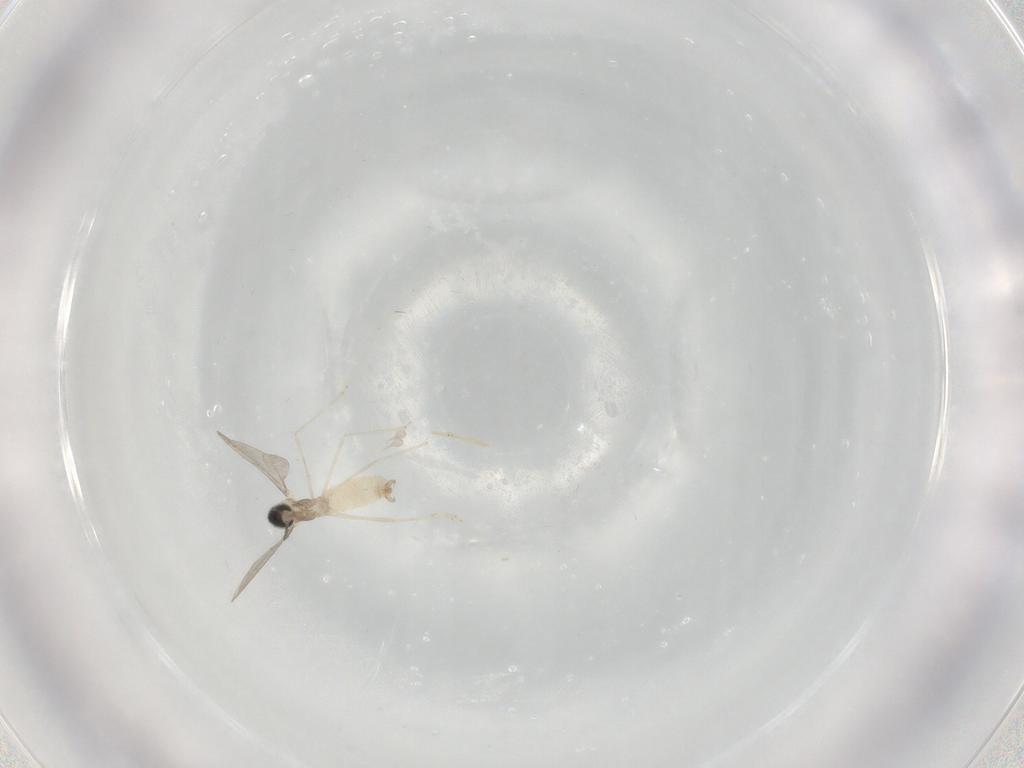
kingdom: Animalia
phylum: Arthropoda
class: Insecta
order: Diptera
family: Cecidomyiidae
